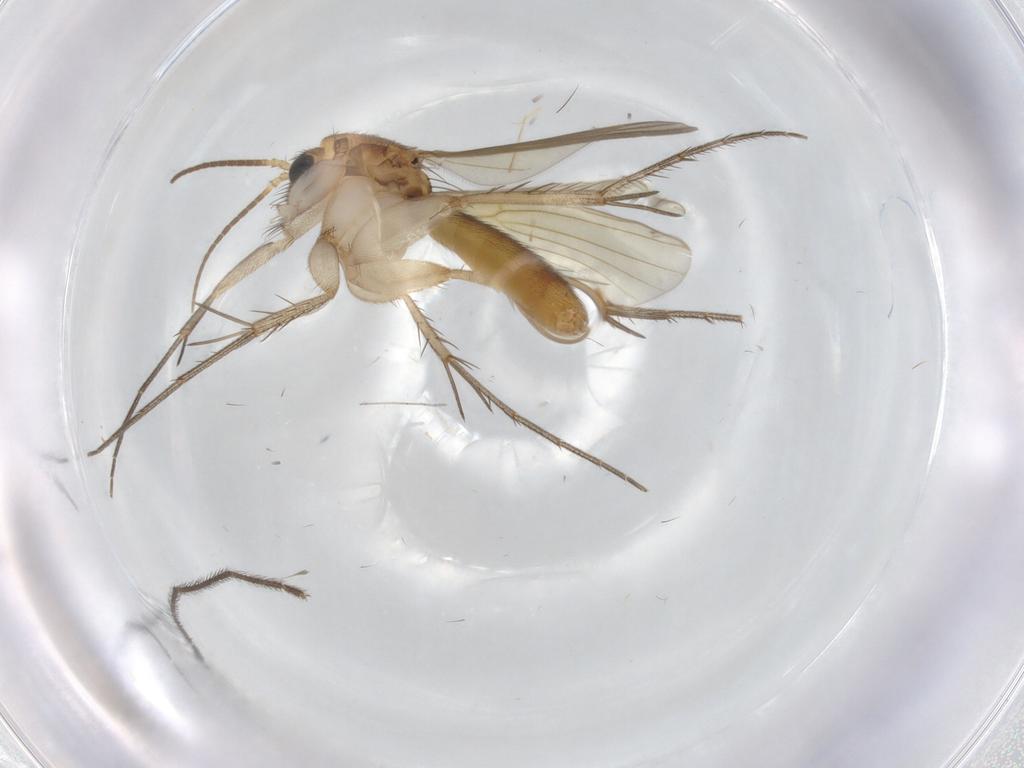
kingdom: Animalia
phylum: Arthropoda
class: Insecta
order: Diptera
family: Mycetophilidae
